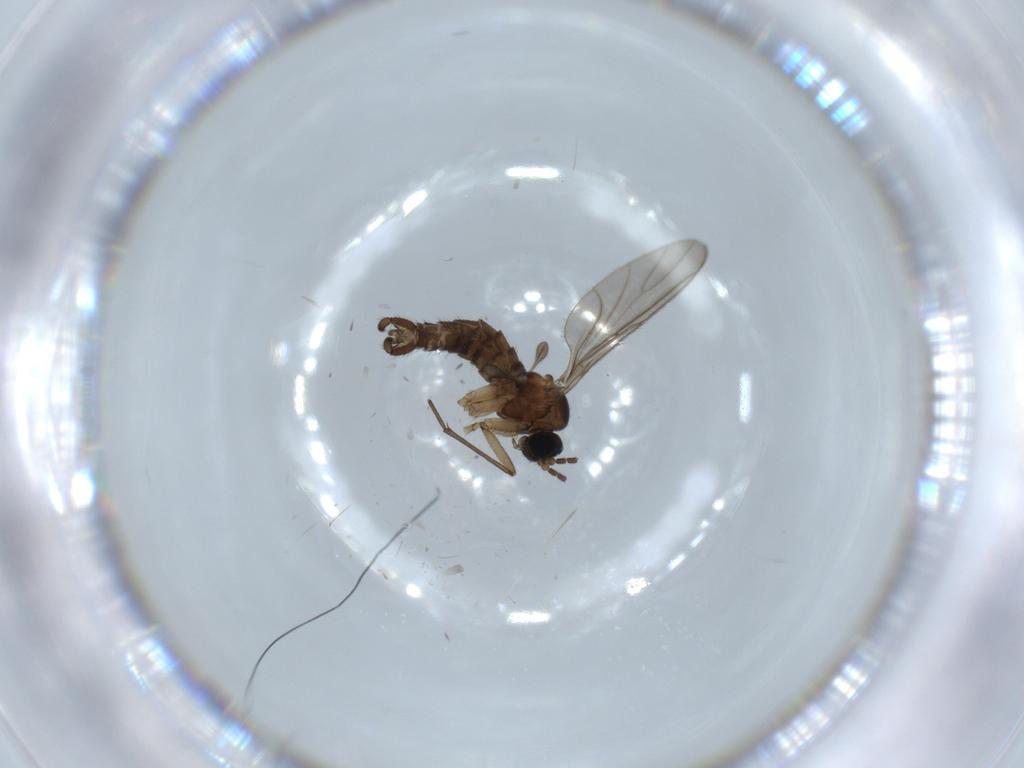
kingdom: Animalia
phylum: Arthropoda
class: Insecta
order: Diptera
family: Sciaridae
